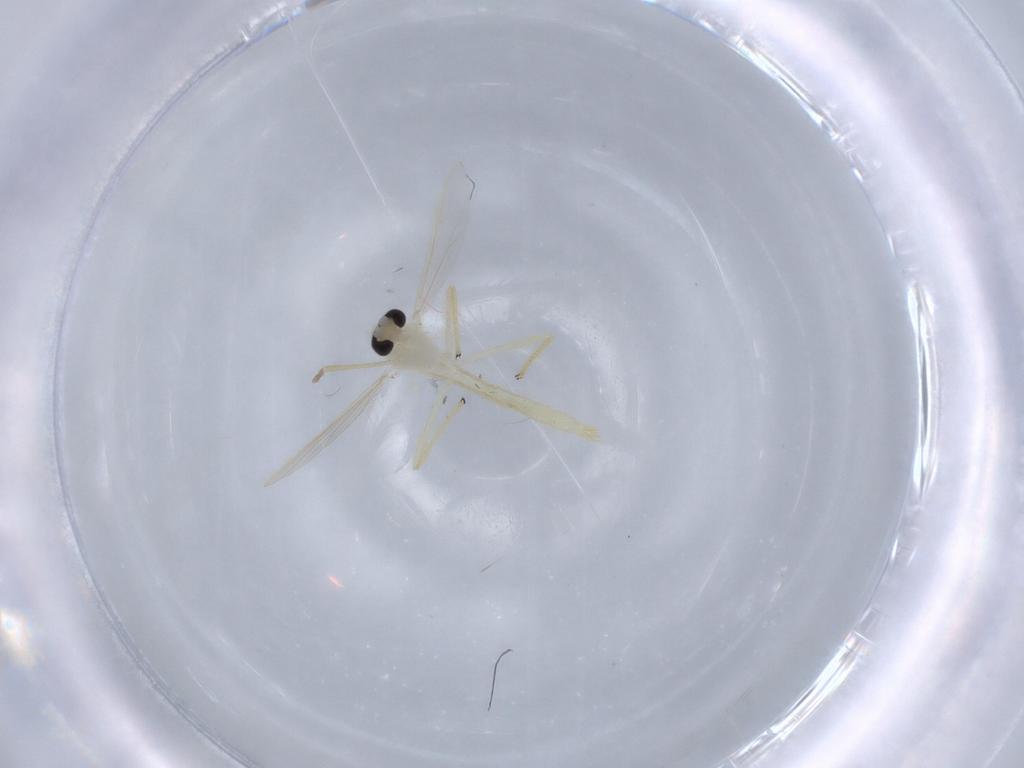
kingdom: Animalia
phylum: Arthropoda
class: Insecta
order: Diptera
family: Chironomidae
